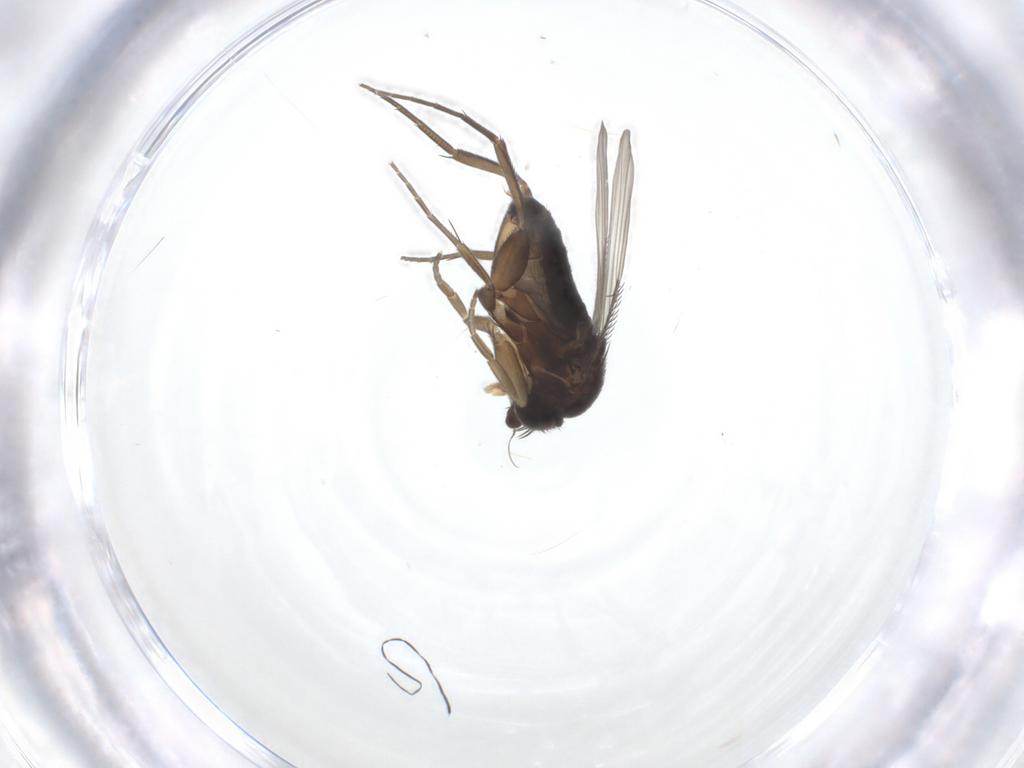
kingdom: Animalia
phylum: Arthropoda
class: Insecta
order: Diptera
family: Phoridae
